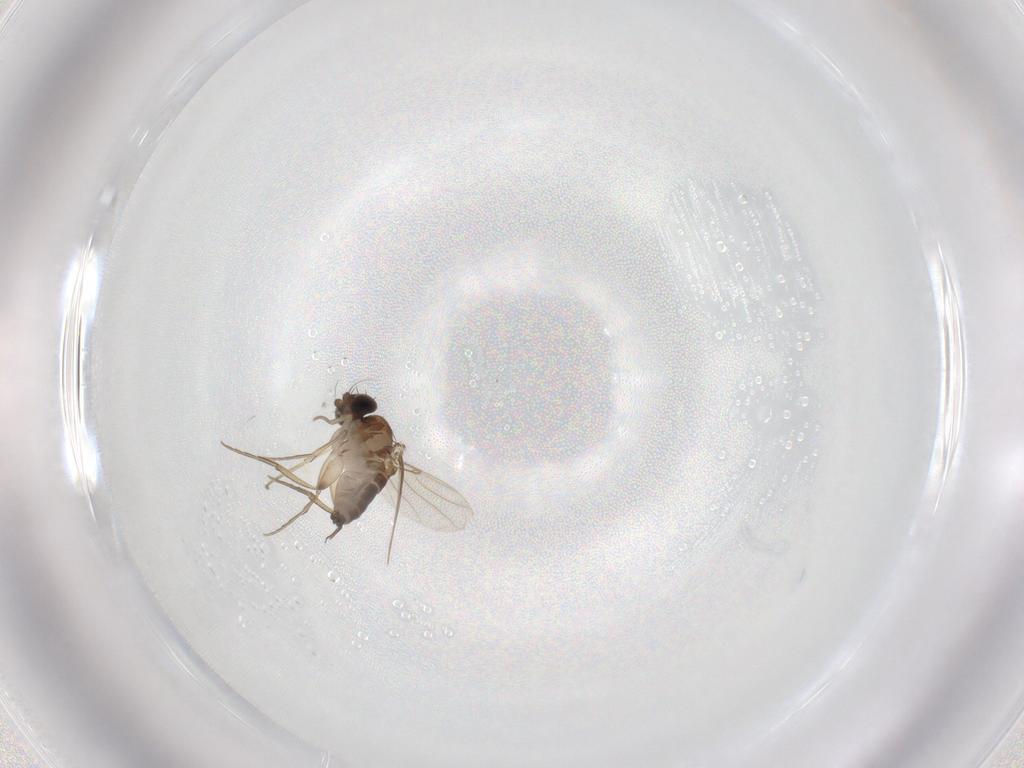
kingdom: Animalia
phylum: Arthropoda
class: Insecta
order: Diptera
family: Phoridae
